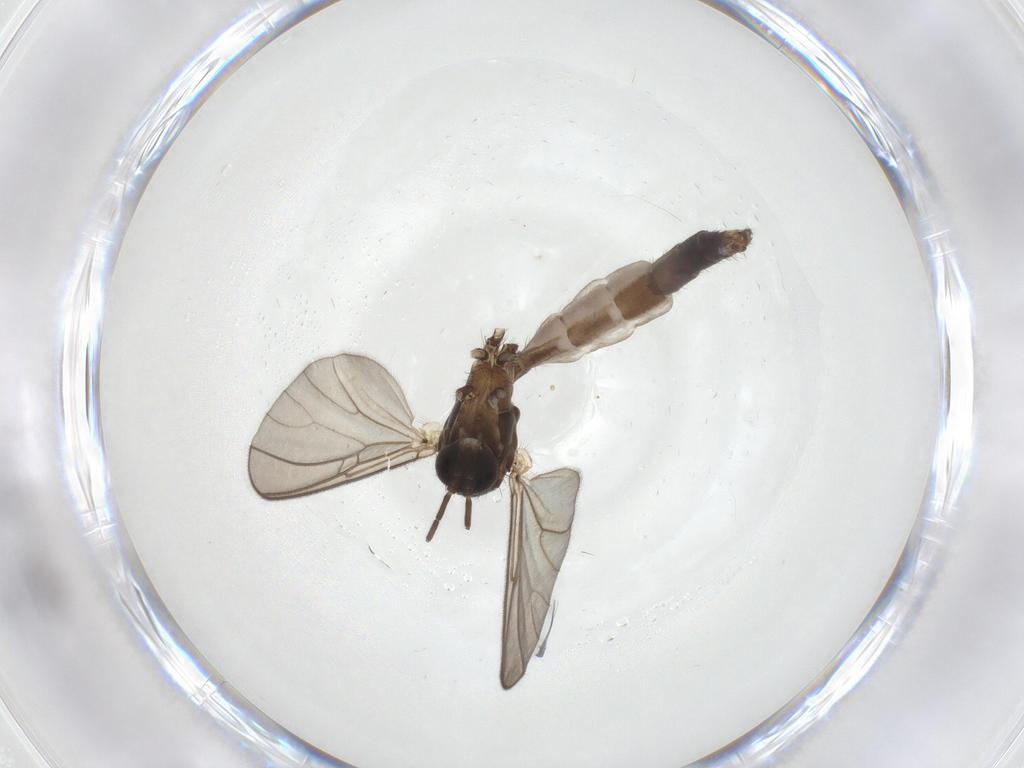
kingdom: Animalia
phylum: Arthropoda
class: Insecta
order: Diptera
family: Mycetophilidae
